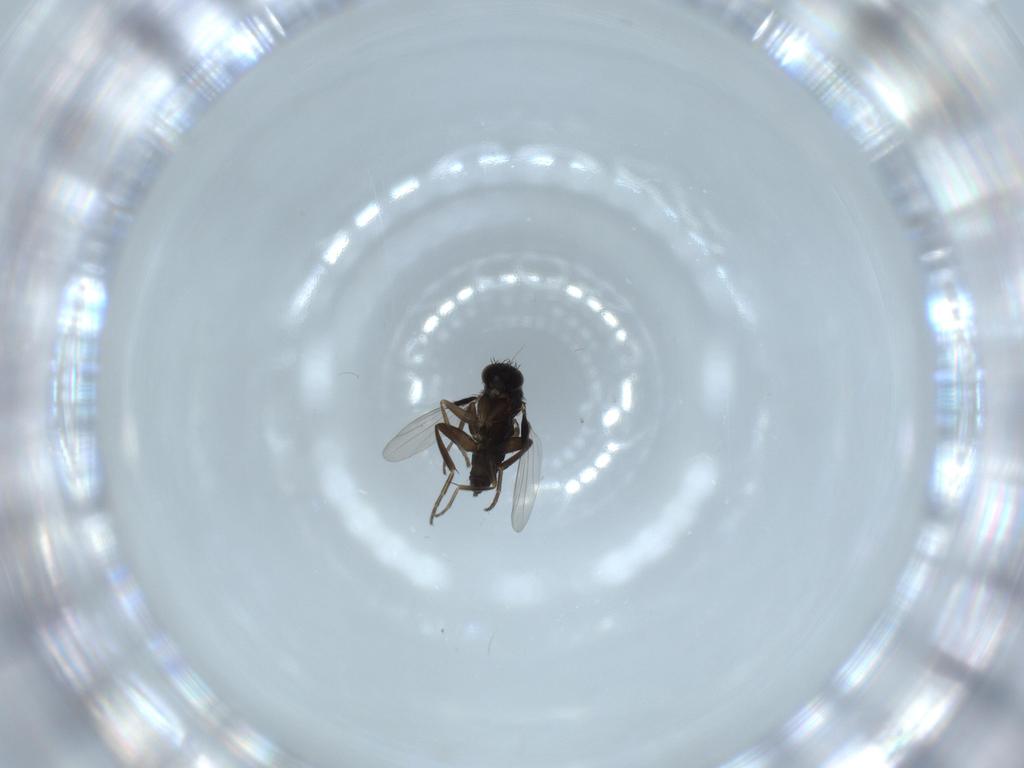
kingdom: Animalia
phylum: Arthropoda
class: Insecta
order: Diptera
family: Phoridae
